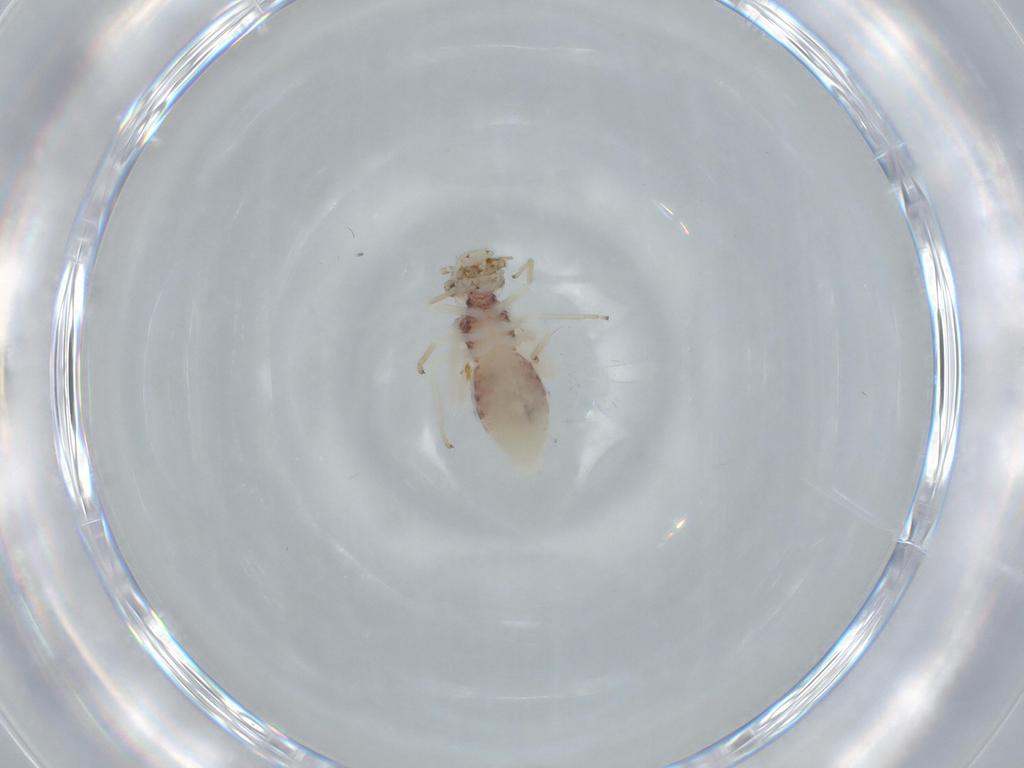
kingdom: Animalia
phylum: Arthropoda
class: Insecta
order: Psocodea
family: Caeciliusidae
